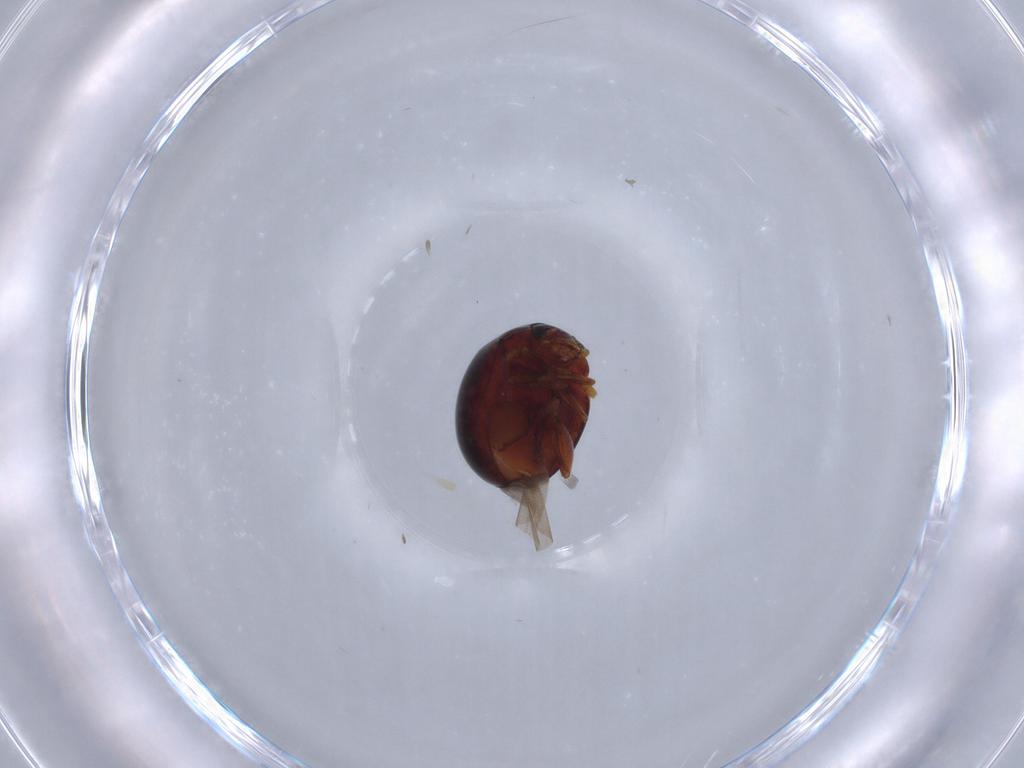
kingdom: Animalia
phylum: Arthropoda
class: Insecta
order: Coleoptera
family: Chrysomelidae
